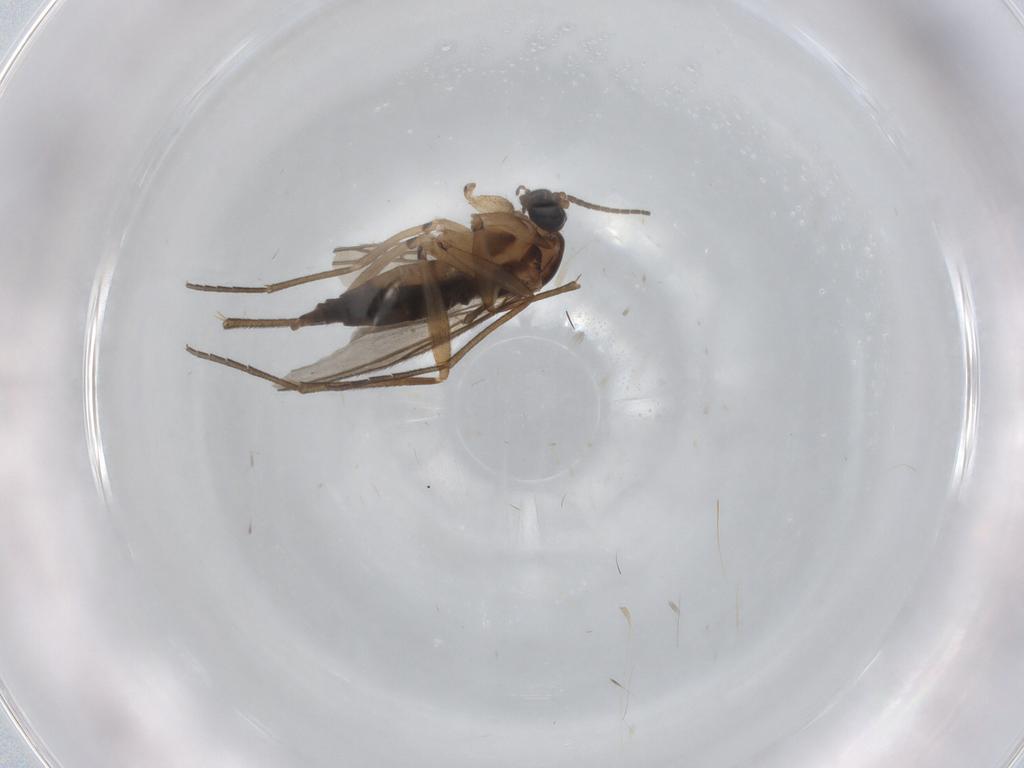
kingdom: Animalia
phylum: Arthropoda
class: Insecta
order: Diptera
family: Sciaridae
